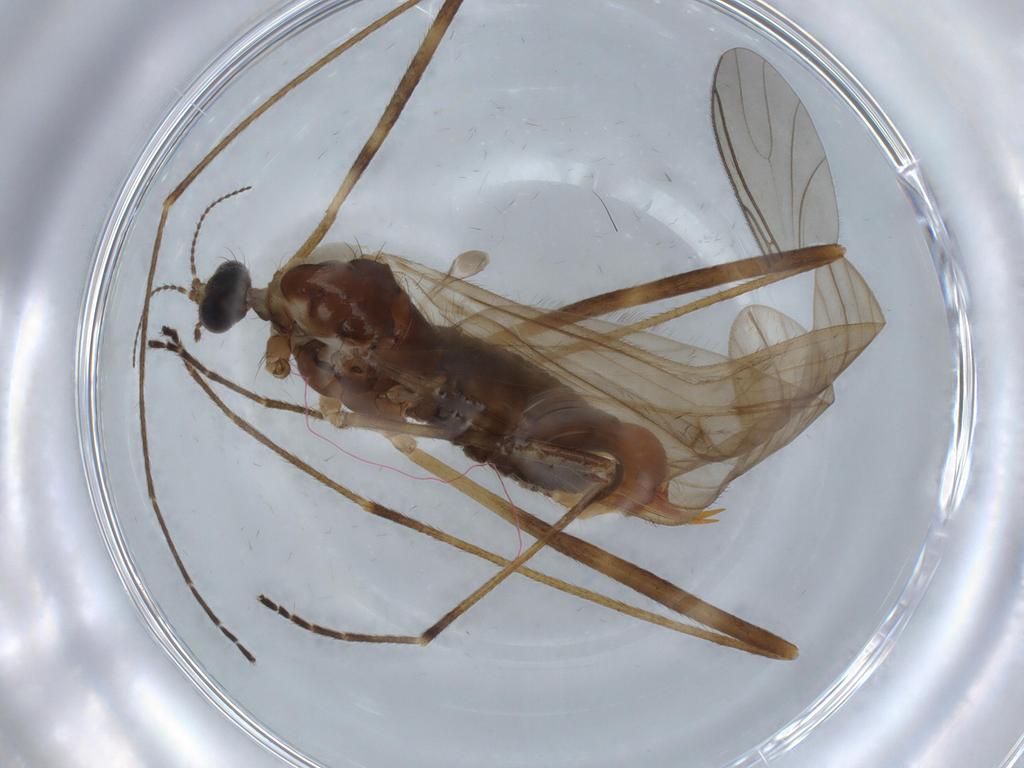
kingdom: Animalia
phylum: Arthropoda
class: Insecta
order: Diptera
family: Limoniidae
